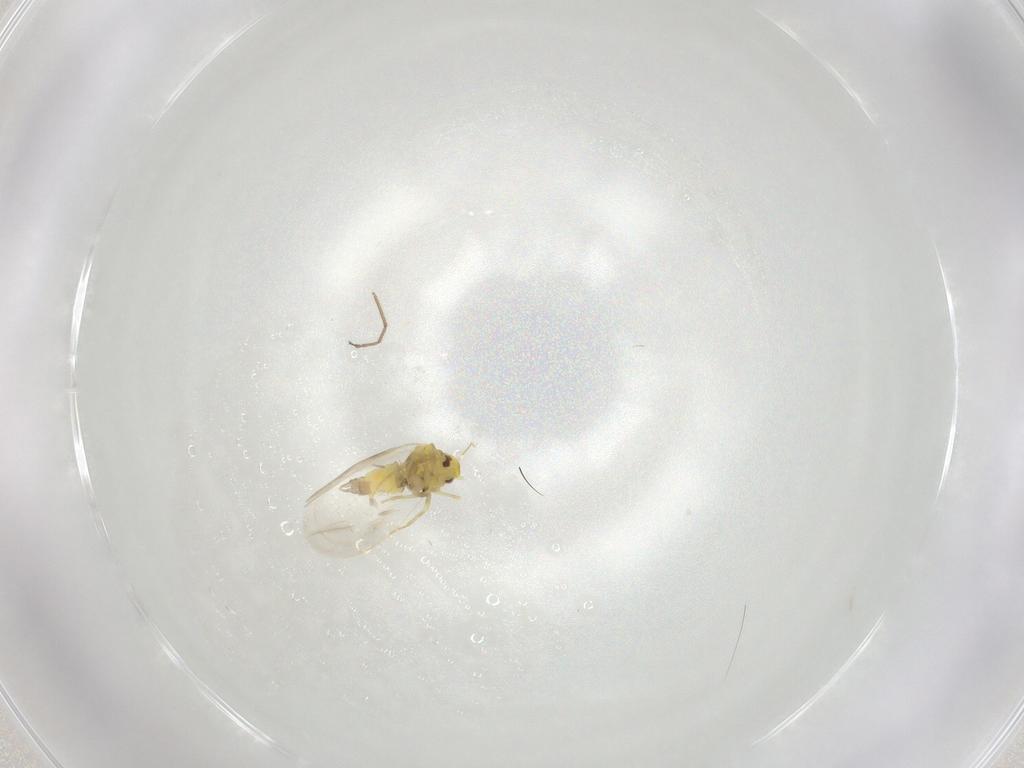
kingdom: Animalia
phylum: Arthropoda
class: Insecta
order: Hemiptera
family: Aleyrodidae
